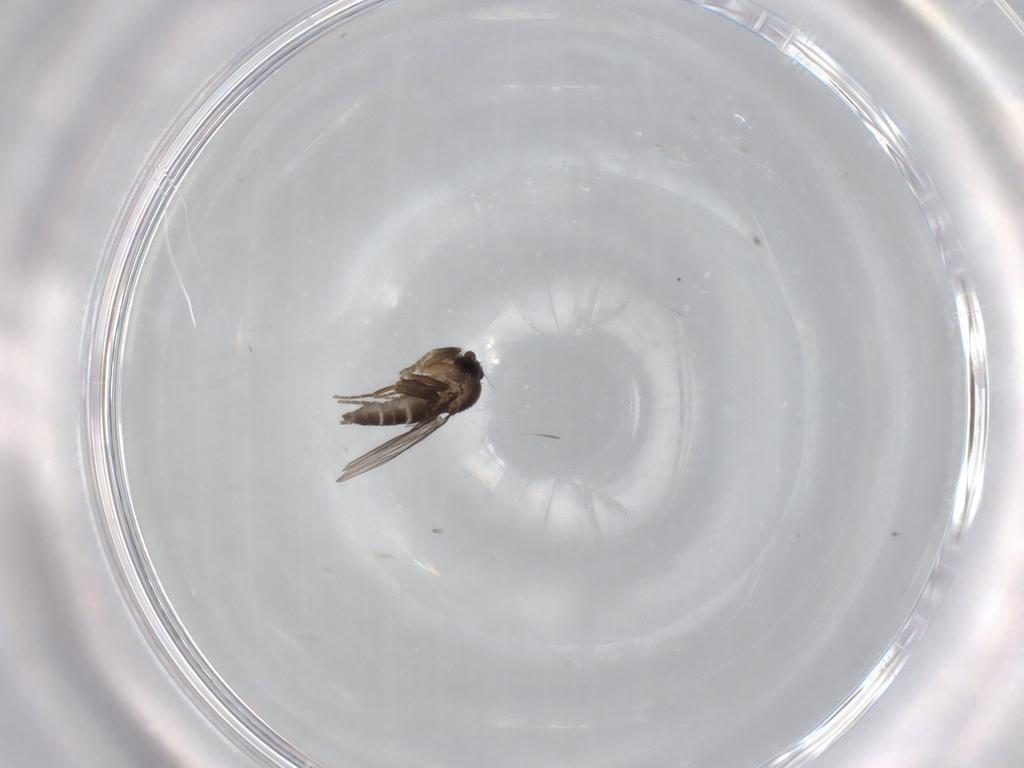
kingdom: Animalia
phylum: Arthropoda
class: Insecta
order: Diptera
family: Phoridae
